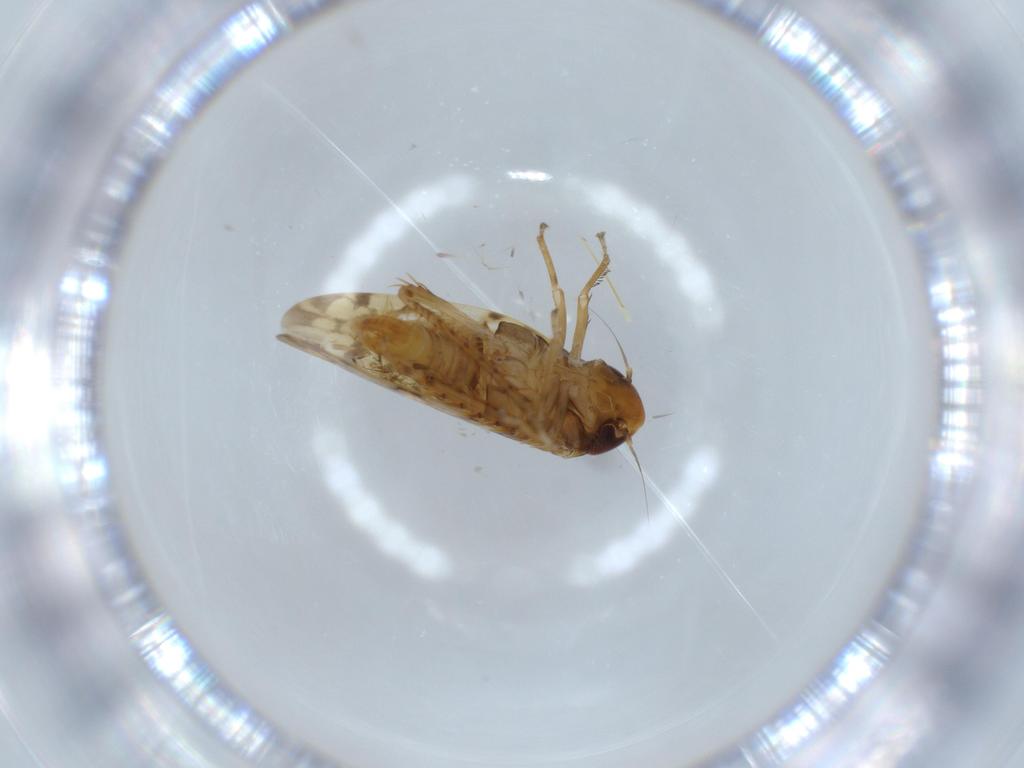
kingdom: Animalia
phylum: Arthropoda
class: Insecta
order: Hemiptera
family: Cicadellidae
